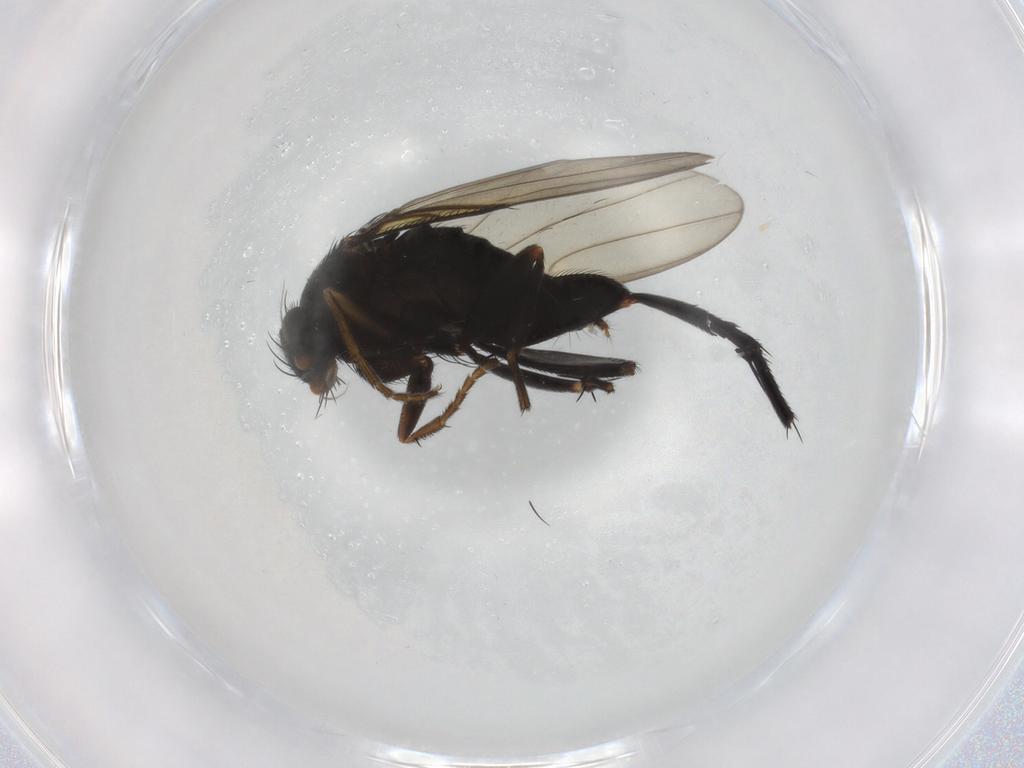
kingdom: Animalia
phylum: Arthropoda
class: Insecta
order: Diptera
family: Phoridae
